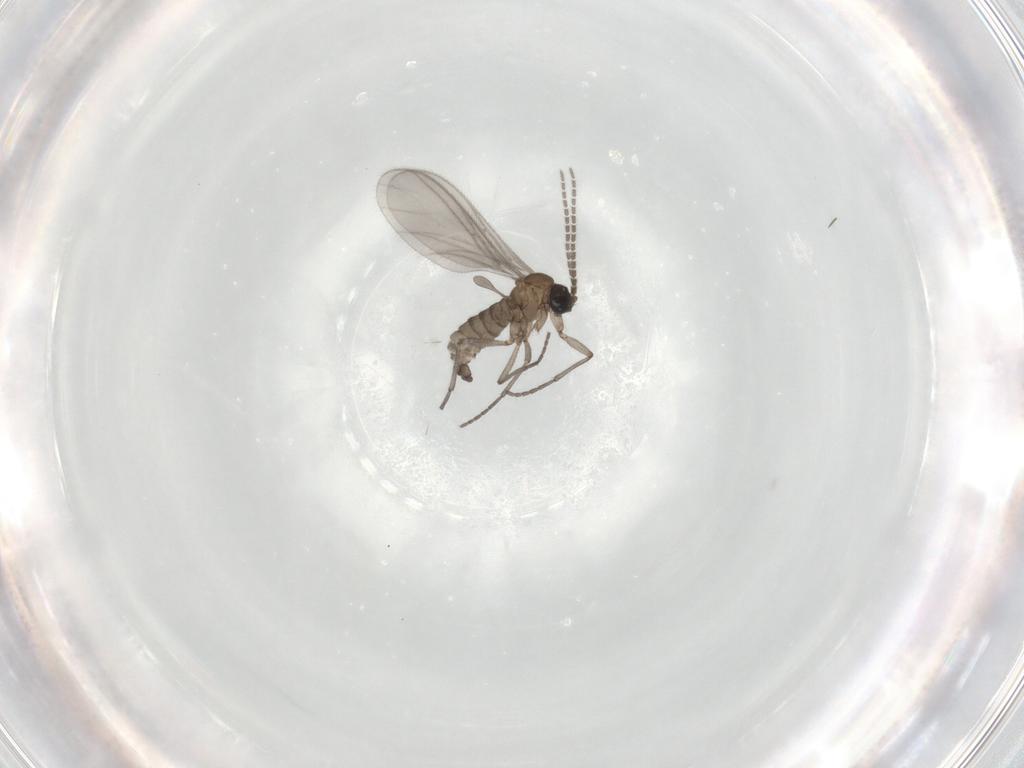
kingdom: Animalia
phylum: Arthropoda
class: Insecta
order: Diptera
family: Sciaridae
